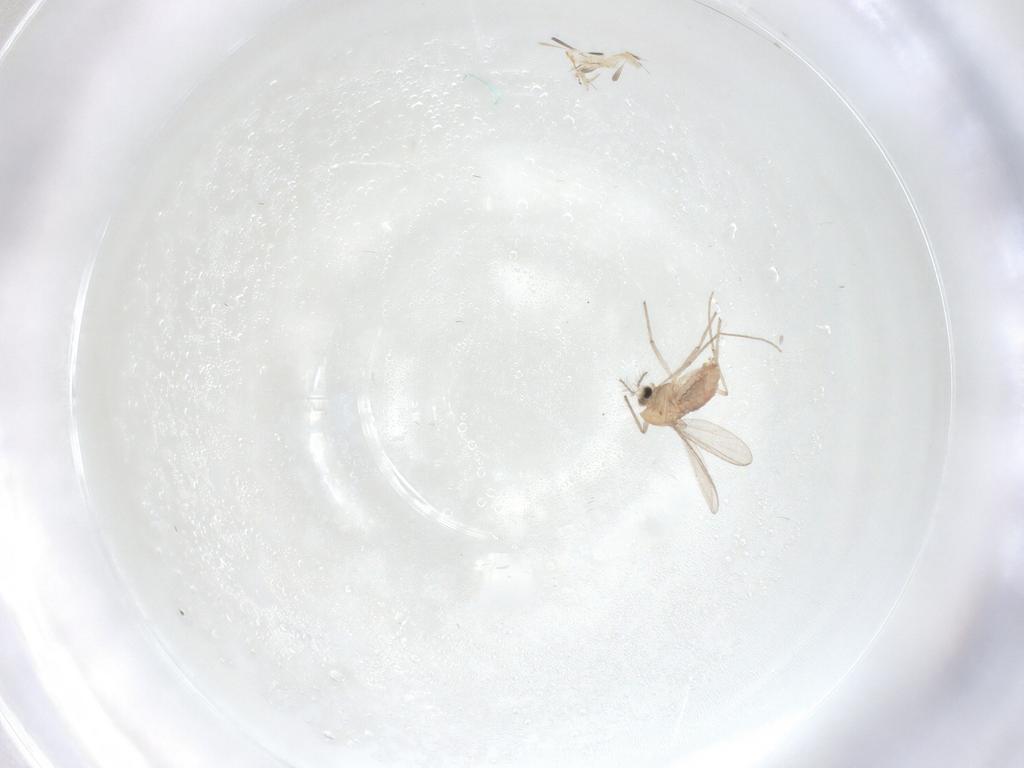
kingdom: Animalia
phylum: Arthropoda
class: Insecta
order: Diptera
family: Chironomidae
